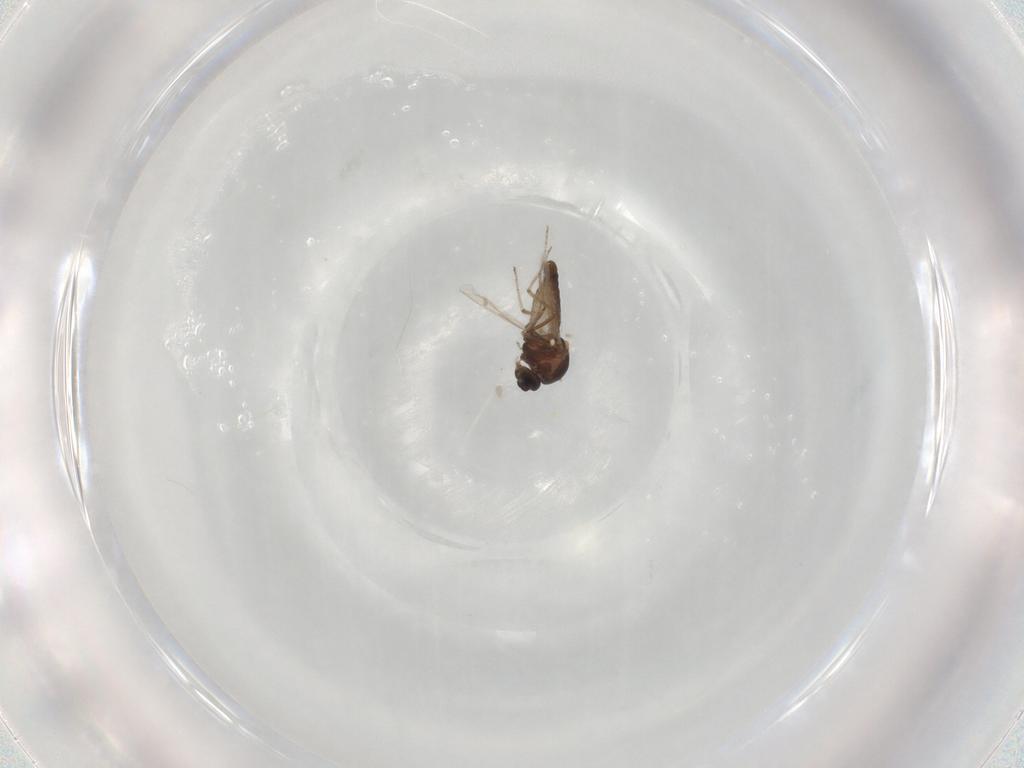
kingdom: Animalia
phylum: Arthropoda
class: Insecta
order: Diptera
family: Cecidomyiidae
